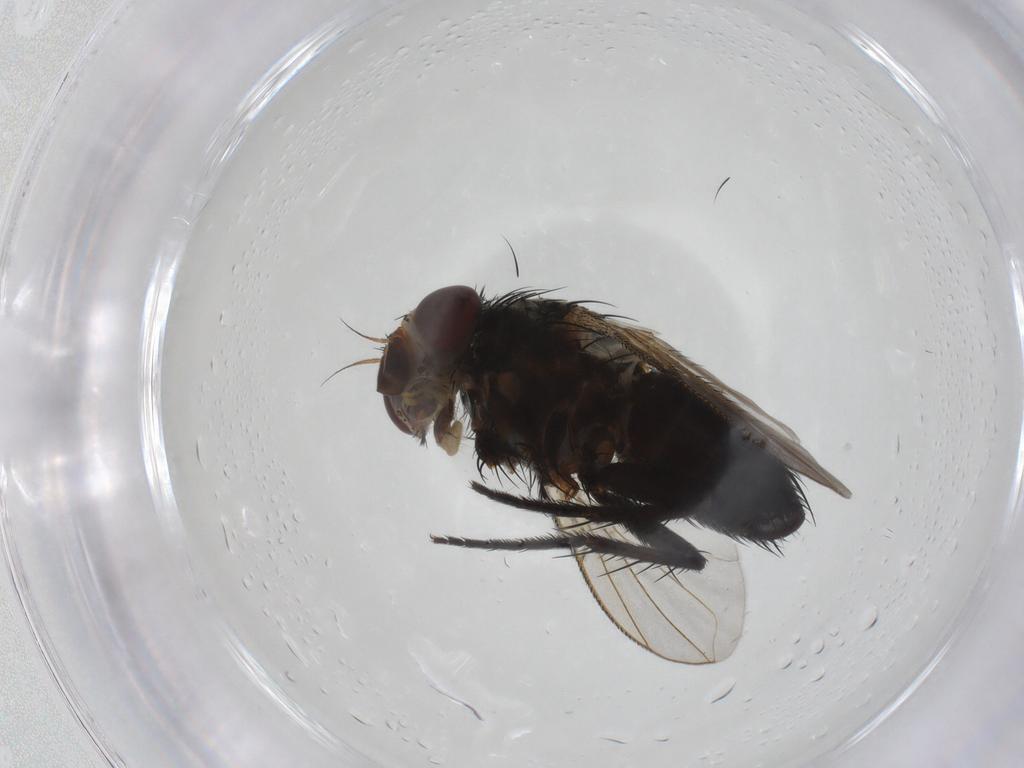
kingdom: Animalia
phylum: Arthropoda
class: Insecta
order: Diptera
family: Tachinidae
